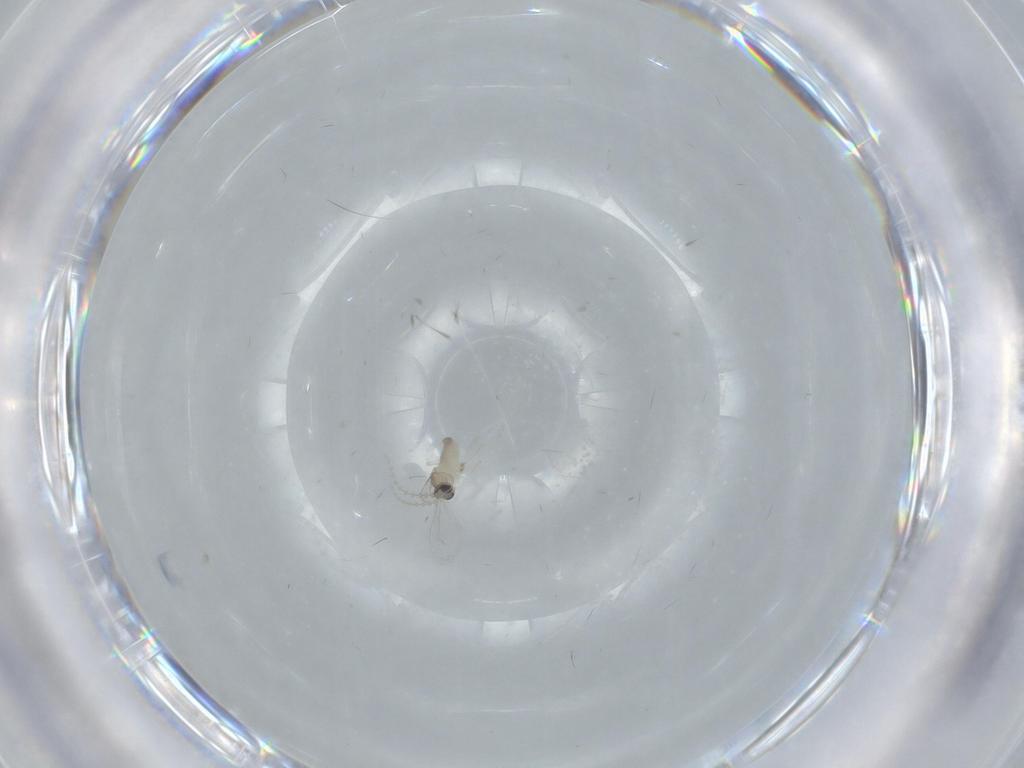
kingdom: Animalia
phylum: Arthropoda
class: Insecta
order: Diptera
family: Cecidomyiidae
